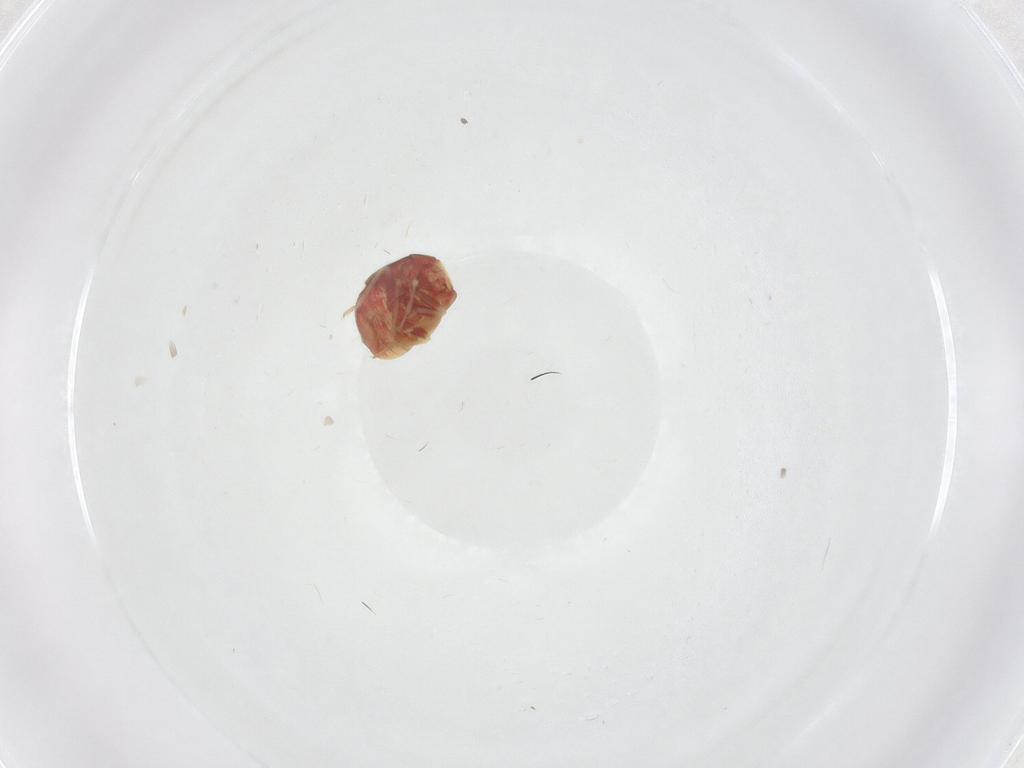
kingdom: Animalia
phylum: Arthropoda
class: Insecta
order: Hemiptera
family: Anthocoridae
